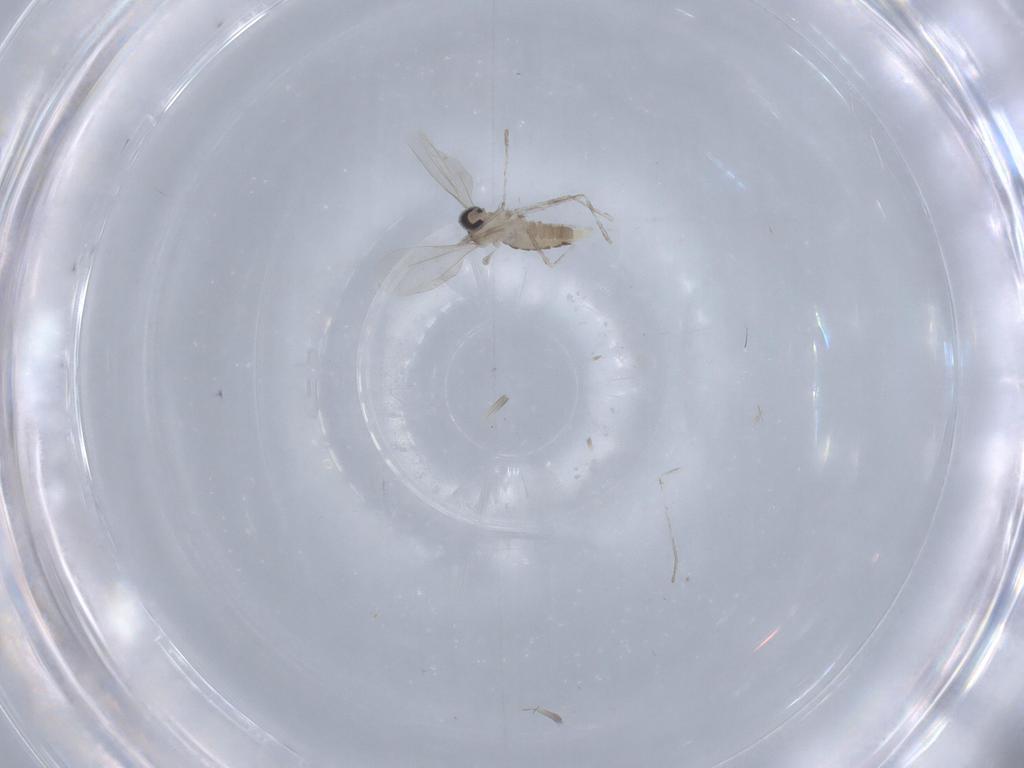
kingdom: Animalia
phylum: Arthropoda
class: Insecta
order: Diptera
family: Cecidomyiidae
